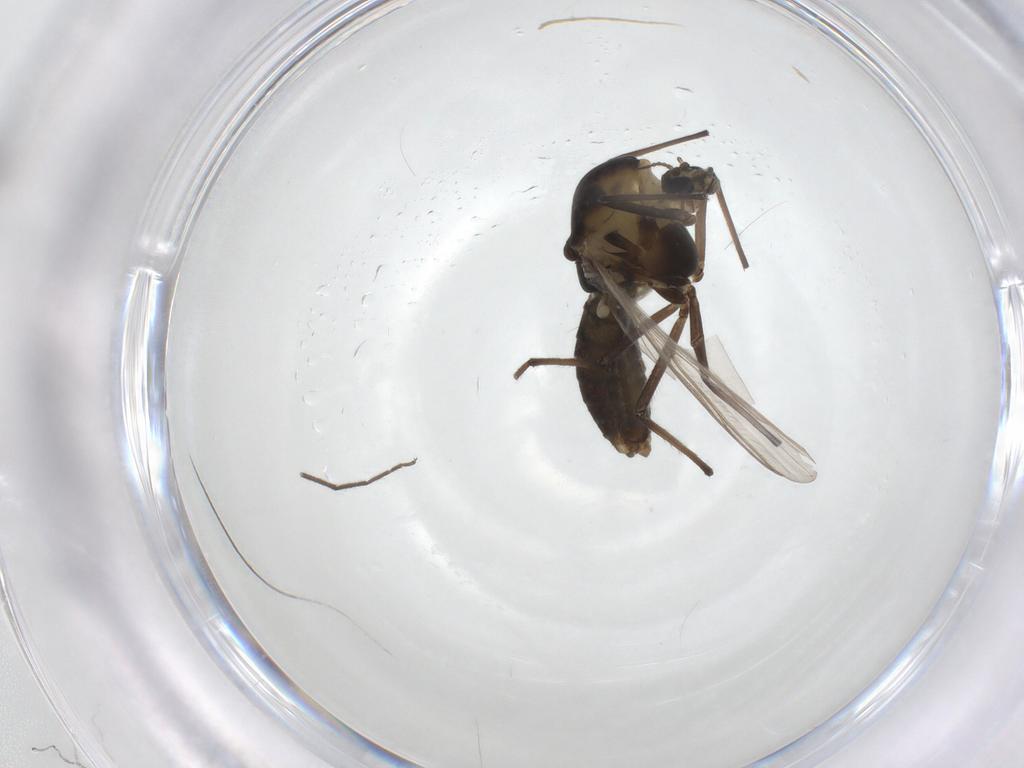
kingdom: Animalia
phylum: Arthropoda
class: Insecta
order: Diptera
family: Chironomidae
